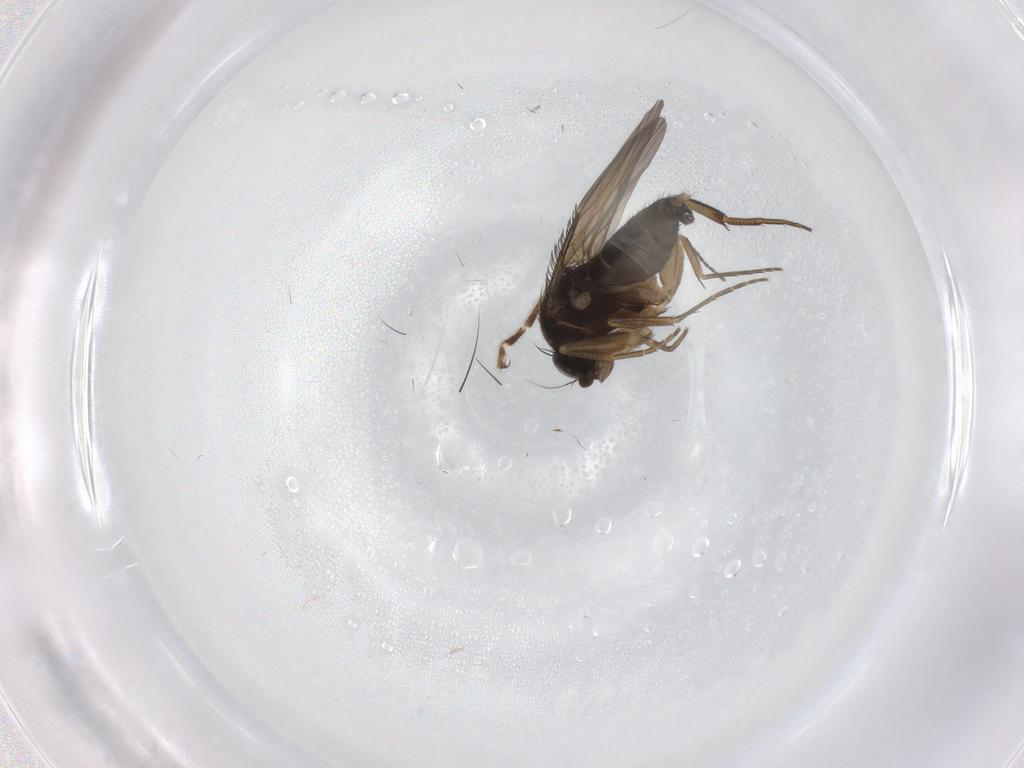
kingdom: Animalia
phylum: Arthropoda
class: Insecta
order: Diptera
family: Phoridae
